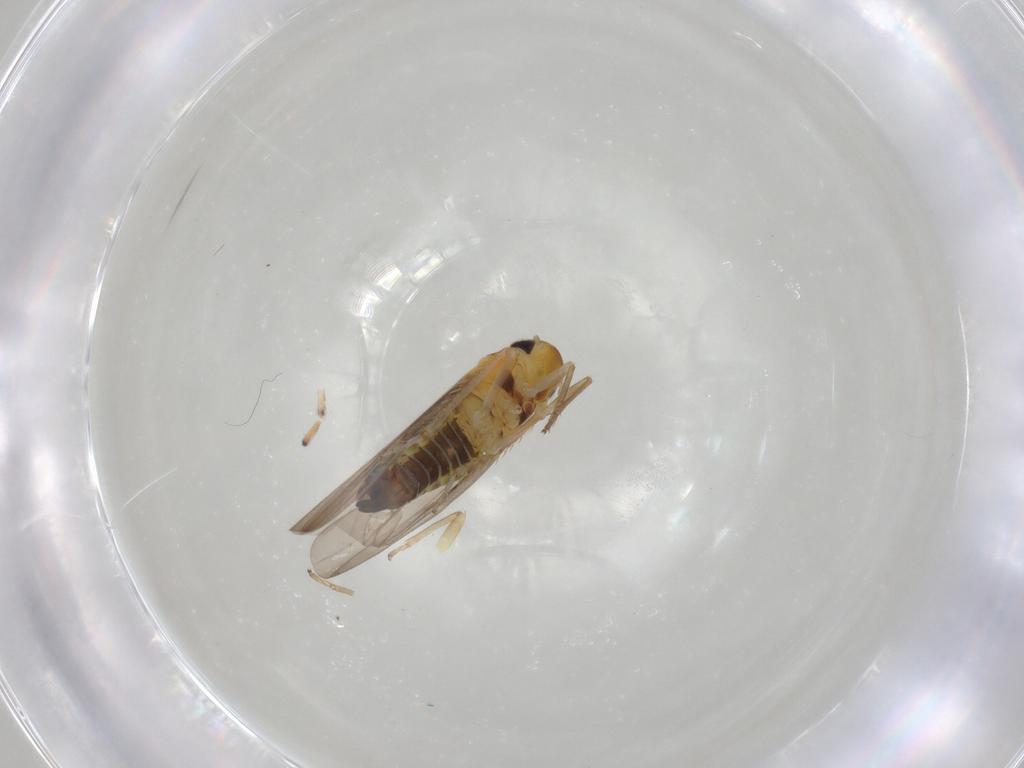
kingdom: Animalia
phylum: Arthropoda
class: Insecta
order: Hemiptera
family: Cicadellidae
